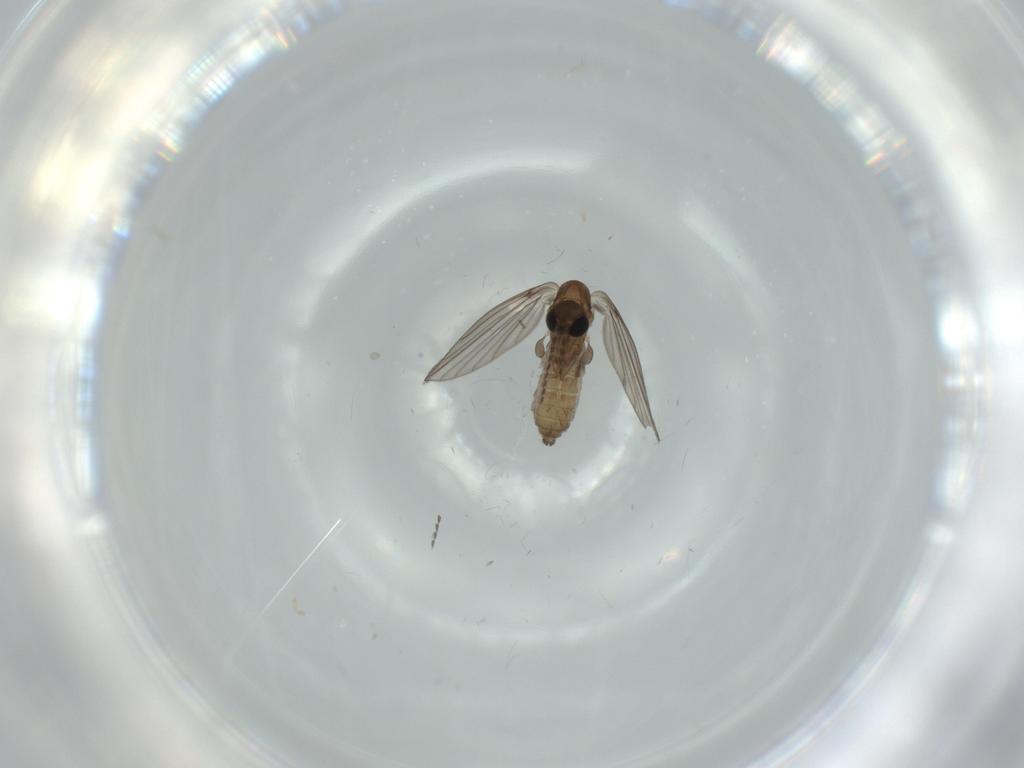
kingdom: Animalia
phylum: Arthropoda
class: Insecta
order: Diptera
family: Psychodidae
